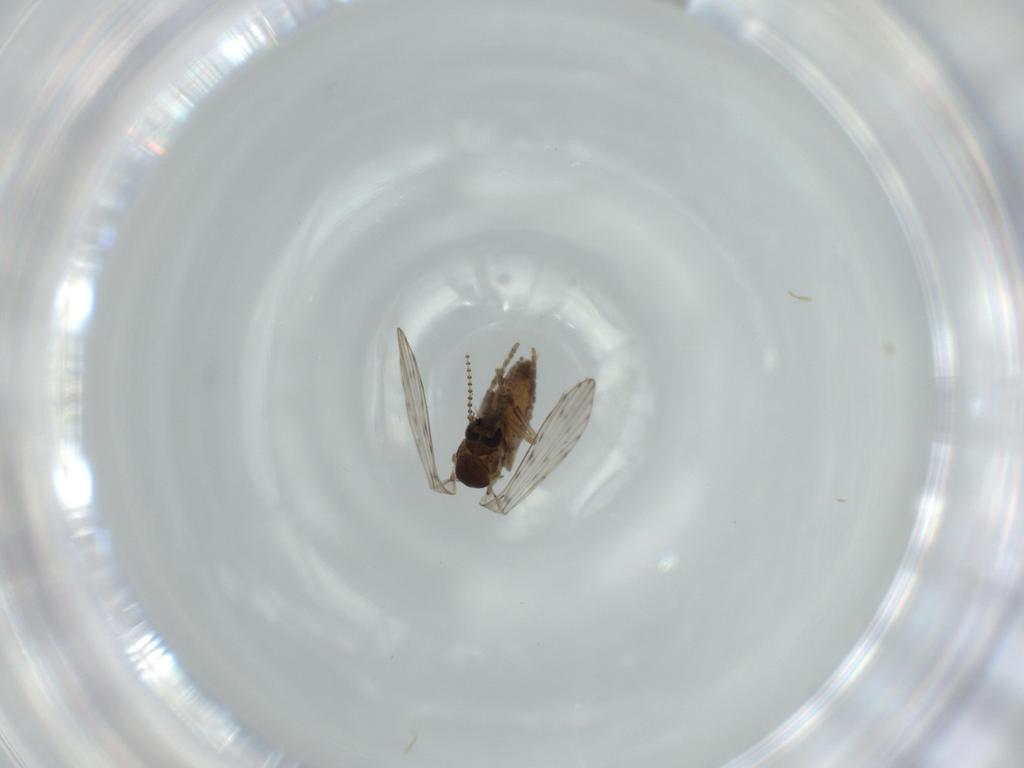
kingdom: Animalia
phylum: Arthropoda
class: Insecta
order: Diptera
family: Psychodidae
